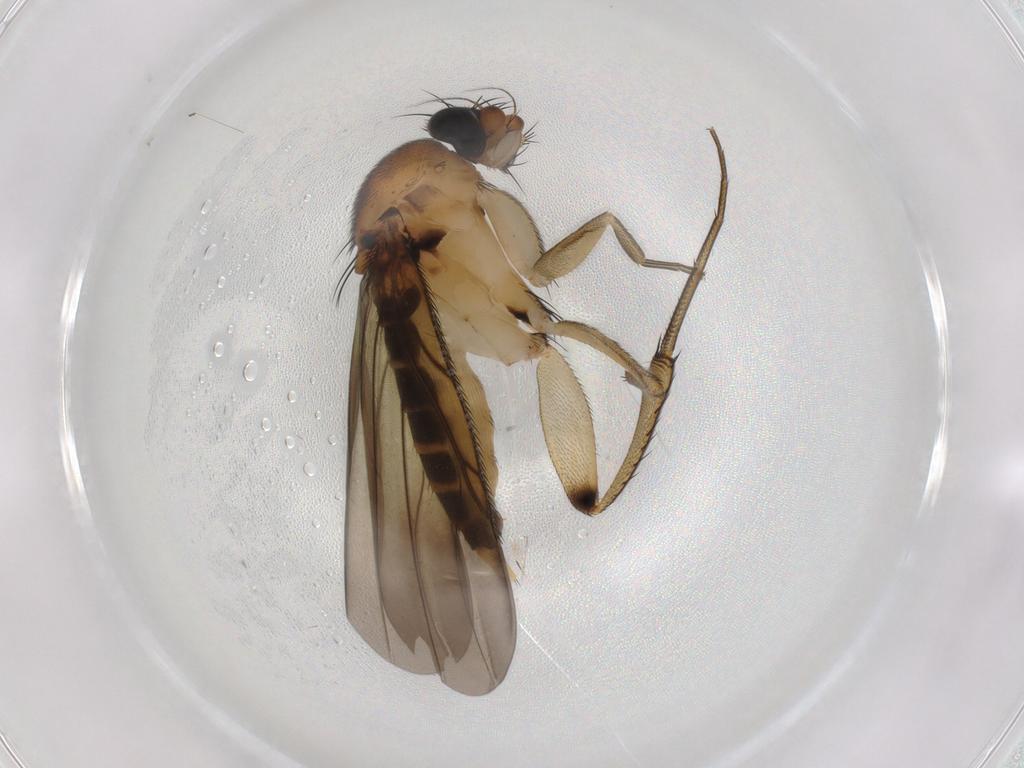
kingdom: Animalia
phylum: Arthropoda
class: Insecta
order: Diptera
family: Phoridae
